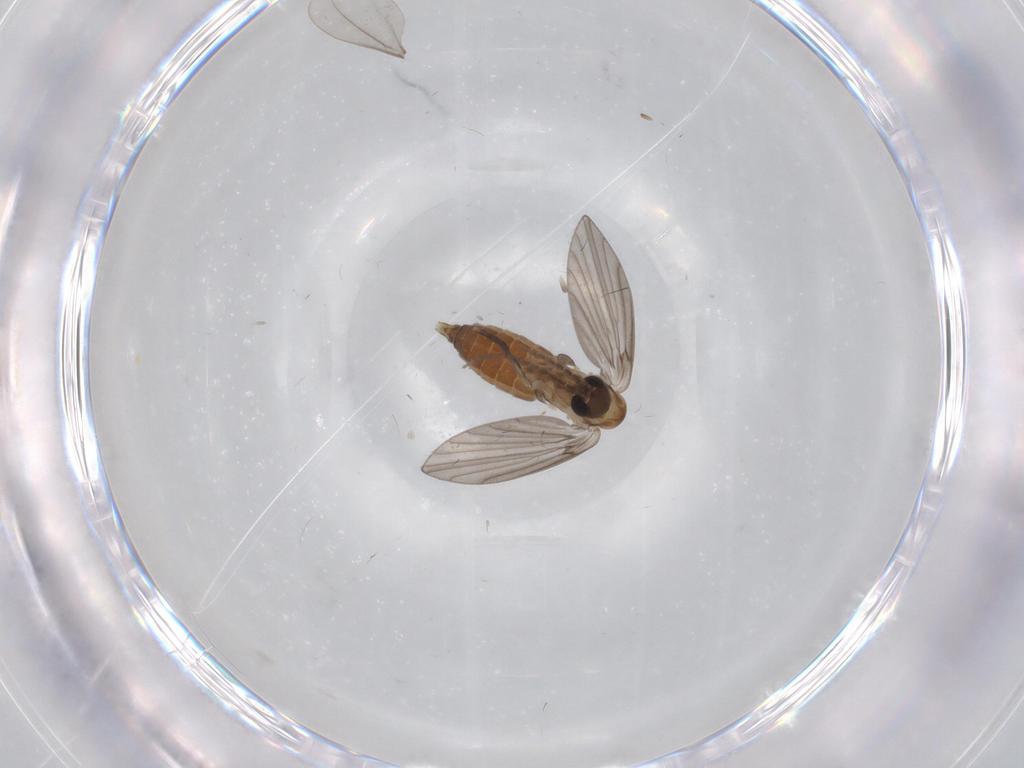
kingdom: Animalia
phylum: Arthropoda
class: Insecta
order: Diptera
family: Cecidomyiidae
